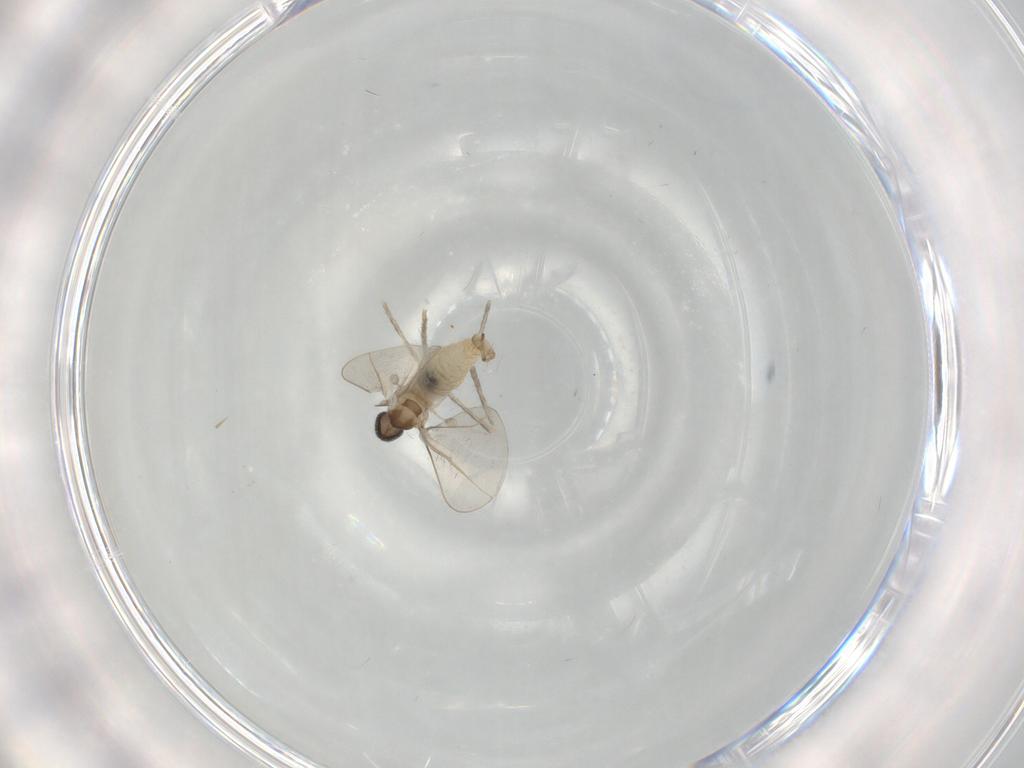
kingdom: Animalia
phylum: Arthropoda
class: Insecta
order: Diptera
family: Cecidomyiidae
